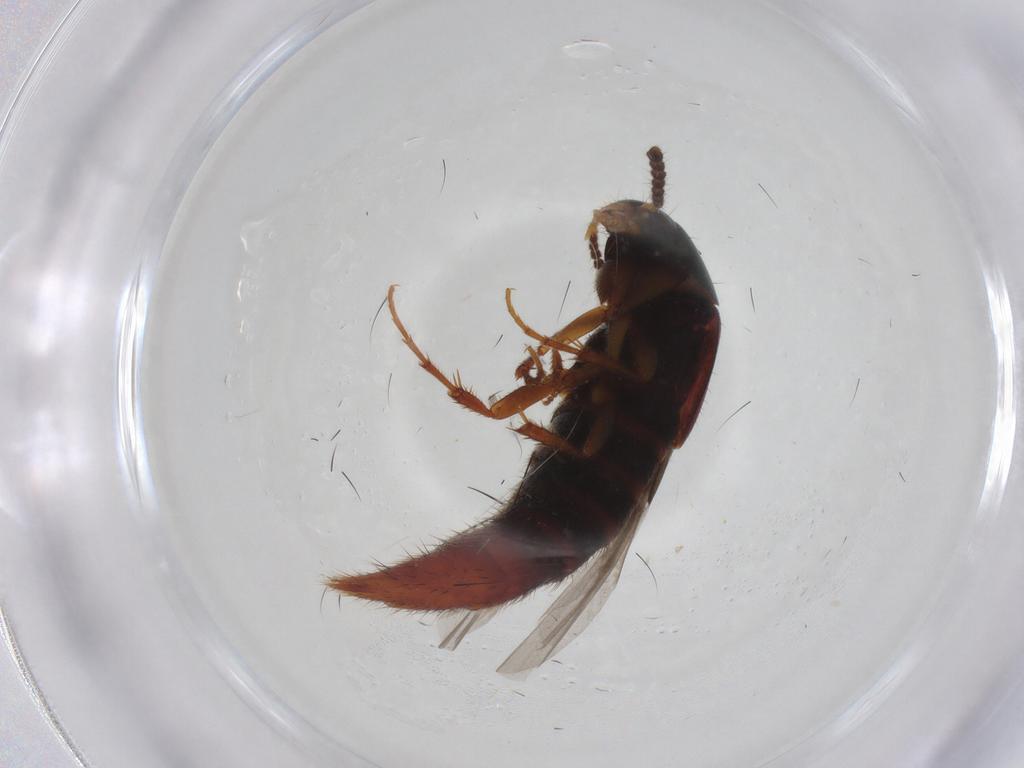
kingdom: Animalia
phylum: Arthropoda
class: Insecta
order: Coleoptera
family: Staphylinidae
